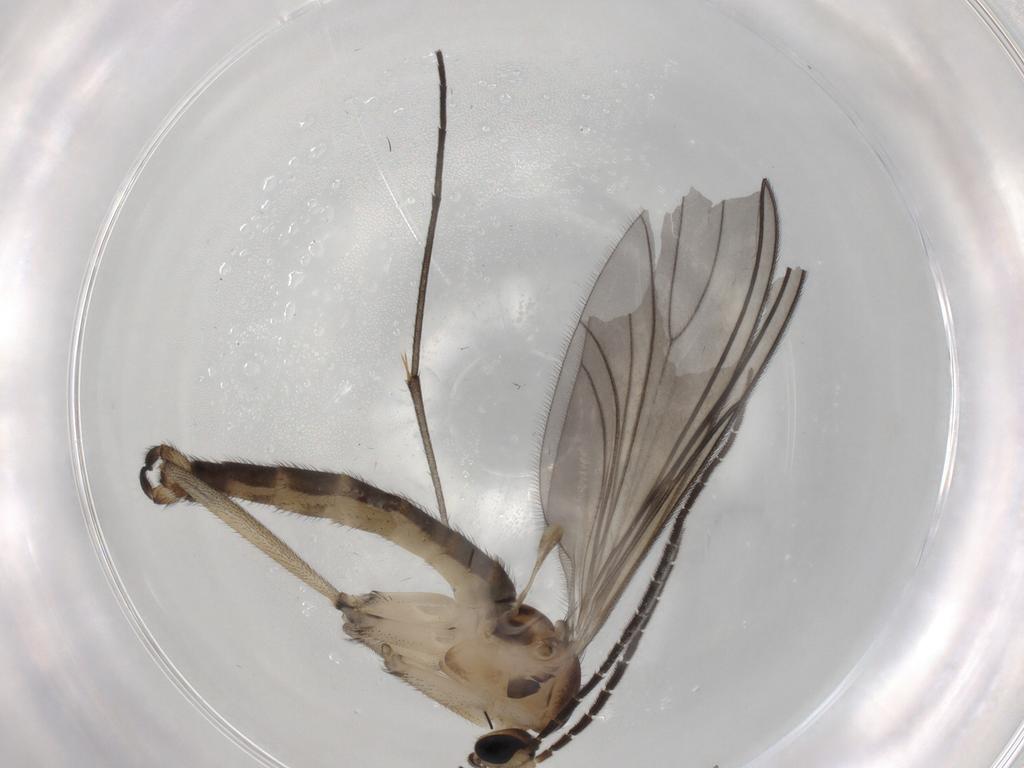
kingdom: Animalia
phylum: Arthropoda
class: Insecta
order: Diptera
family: Sciaridae
